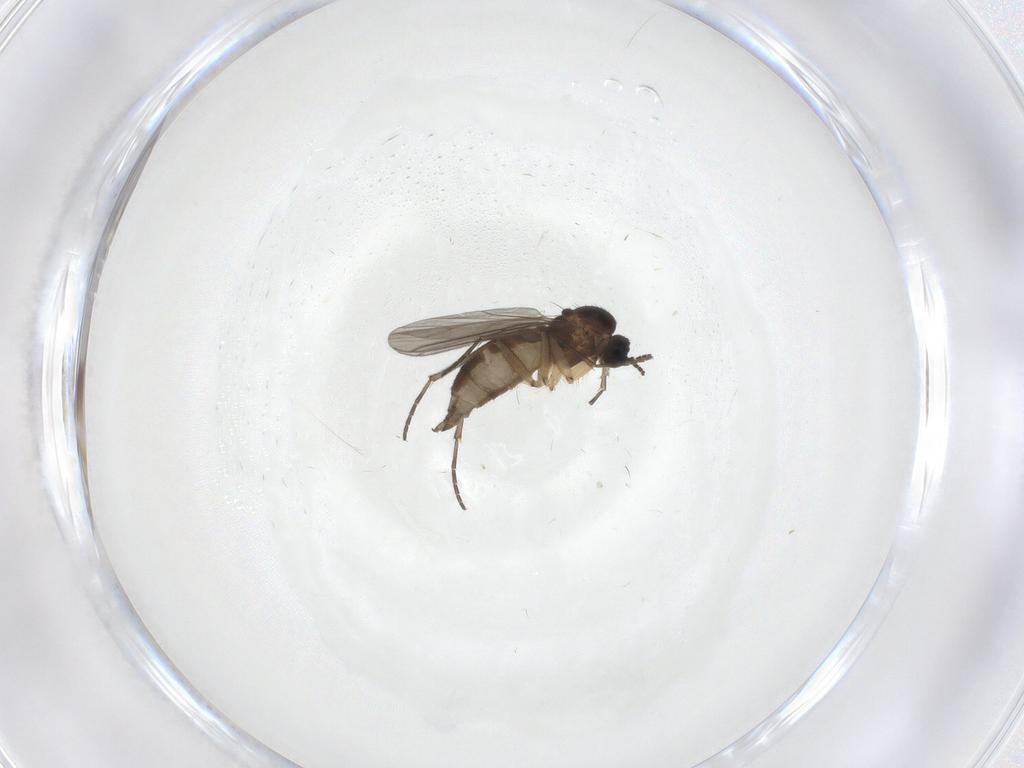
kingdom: Animalia
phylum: Arthropoda
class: Insecta
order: Diptera
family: Sciaridae
